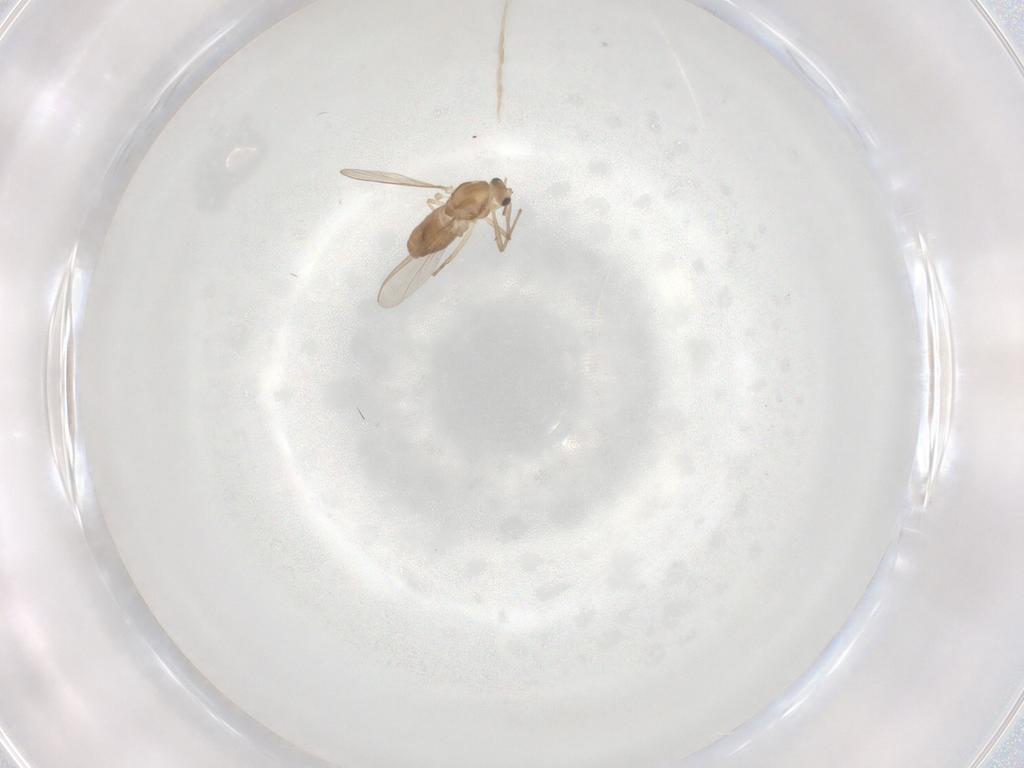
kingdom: Animalia
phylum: Arthropoda
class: Insecta
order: Diptera
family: Chironomidae
